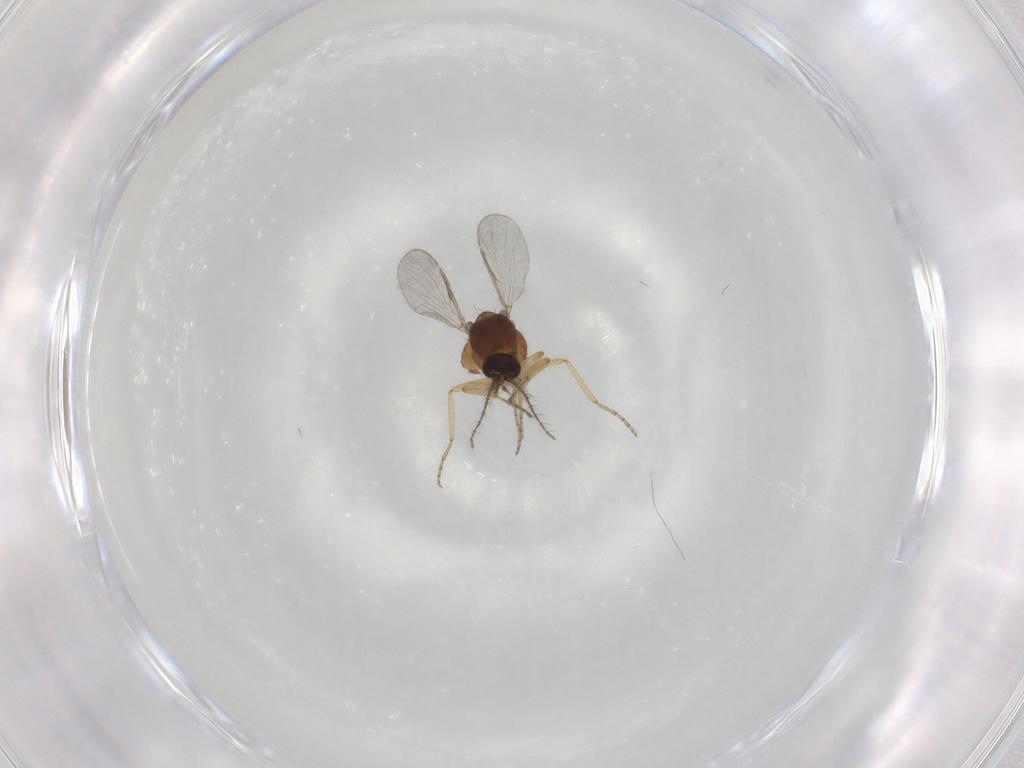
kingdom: Animalia
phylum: Arthropoda
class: Insecta
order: Diptera
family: Ceratopogonidae
